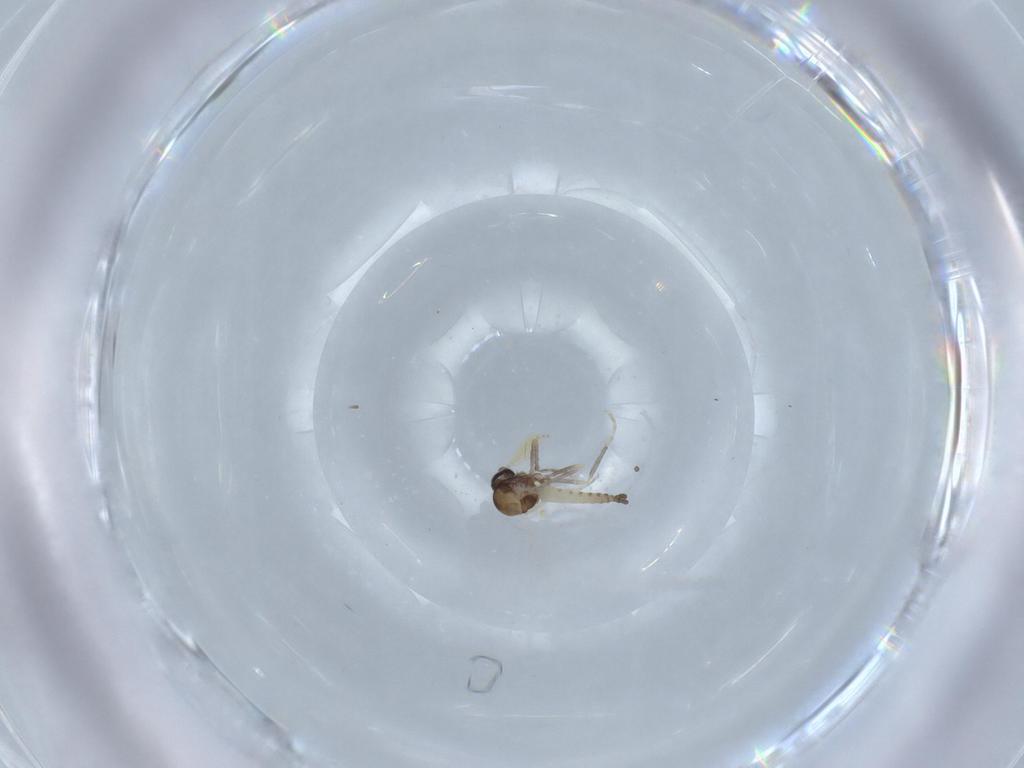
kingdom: Animalia
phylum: Arthropoda
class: Insecta
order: Diptera
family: Ceratopogonidae
